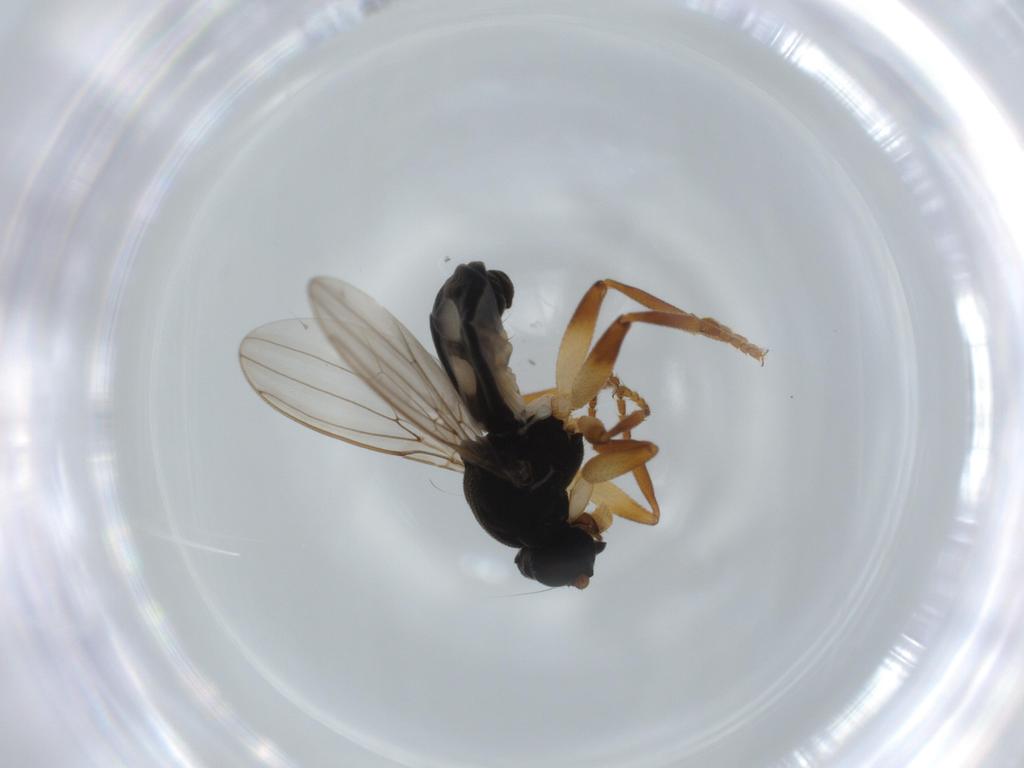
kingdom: Animalia
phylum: Arthropoda
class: Insecta
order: Diptera
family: Sphaeroceridae
